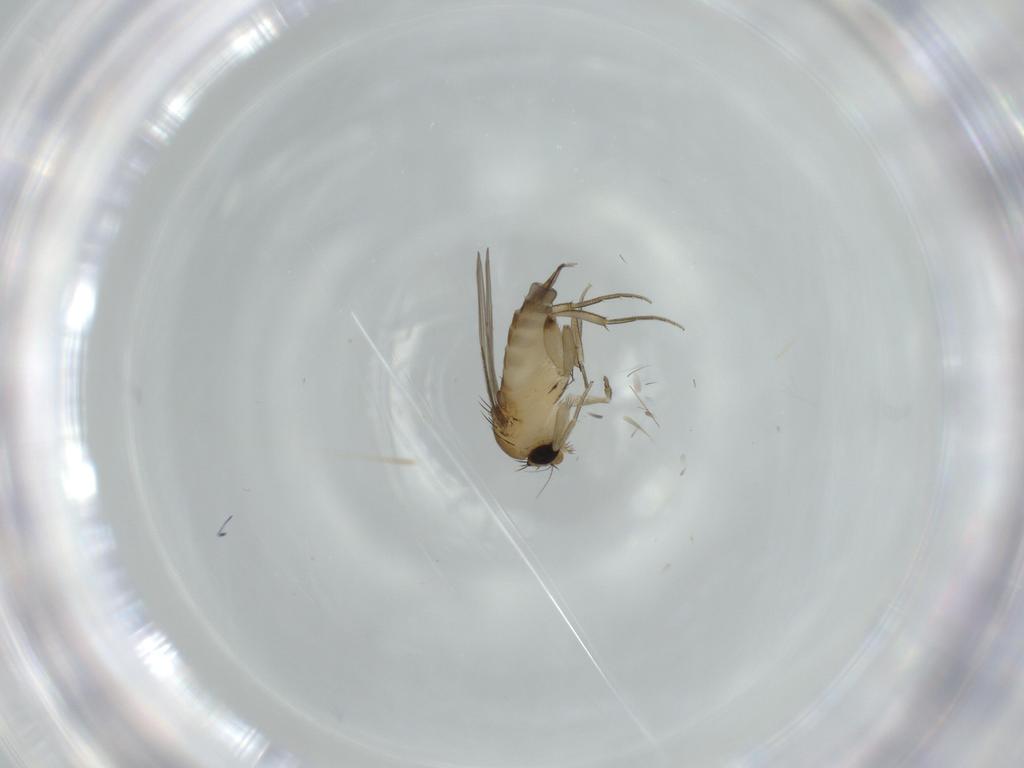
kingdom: Animalia
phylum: Arthropoda
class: Insecta
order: Diptera
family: Phoridae
